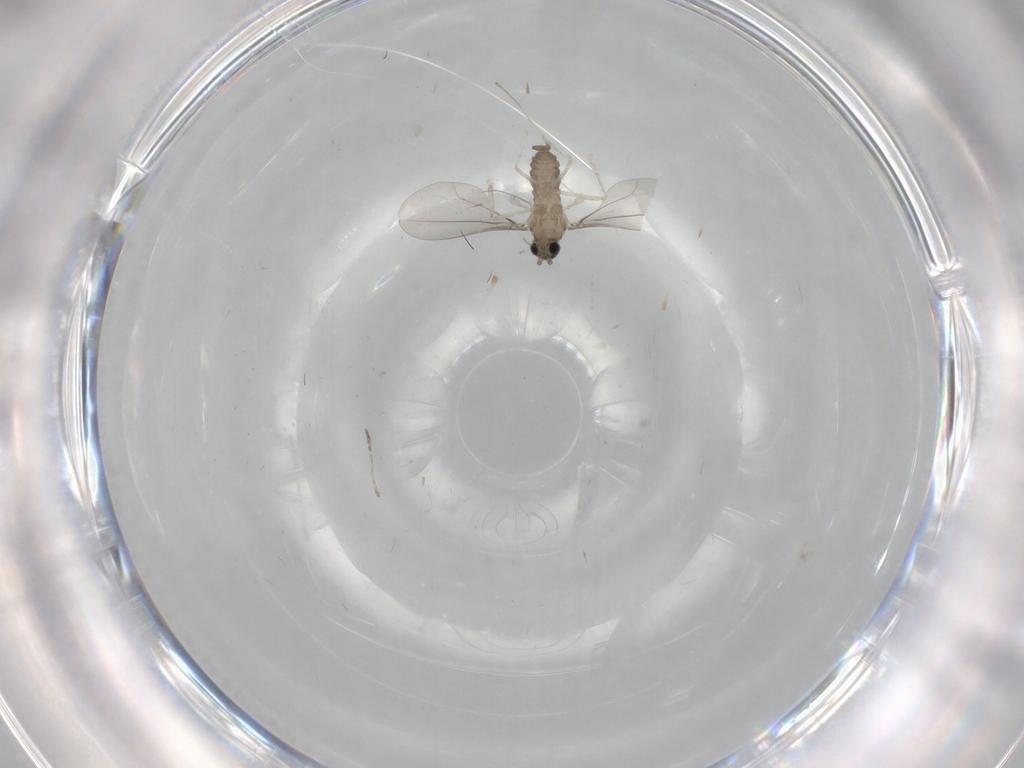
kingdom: Animalia
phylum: Arthropoda
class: Insecta
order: Diptera
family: Cecidomyiidae
